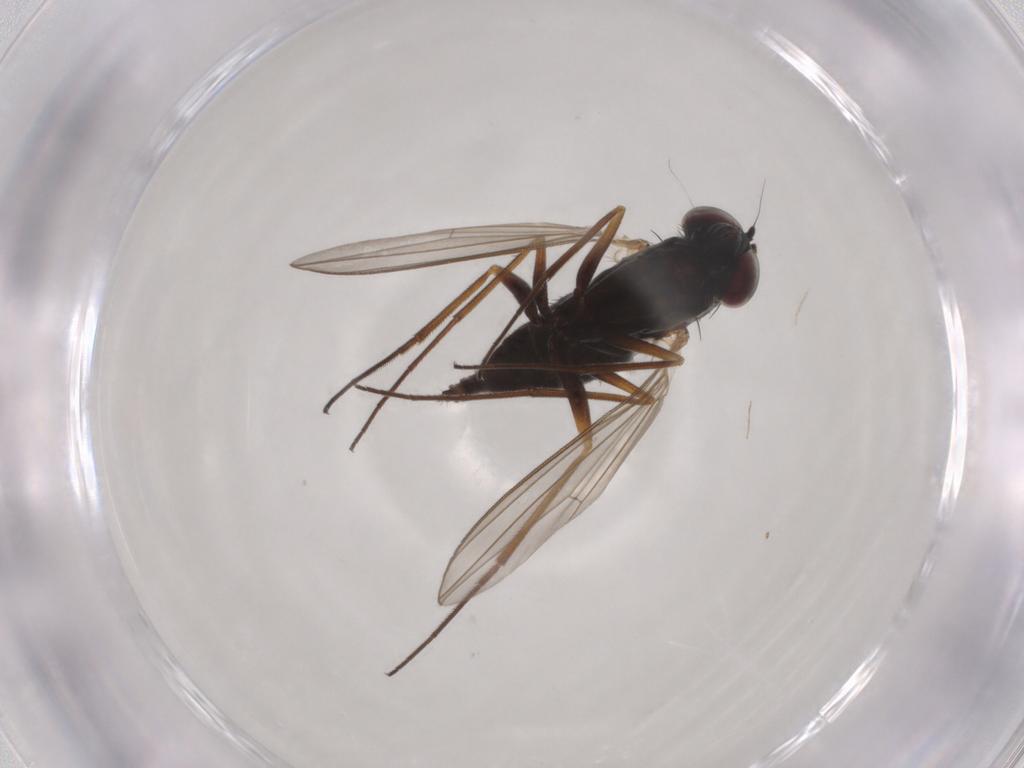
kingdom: Animalia
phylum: Arthropoda
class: Insecta
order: Diptera
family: Dolichopodidae
